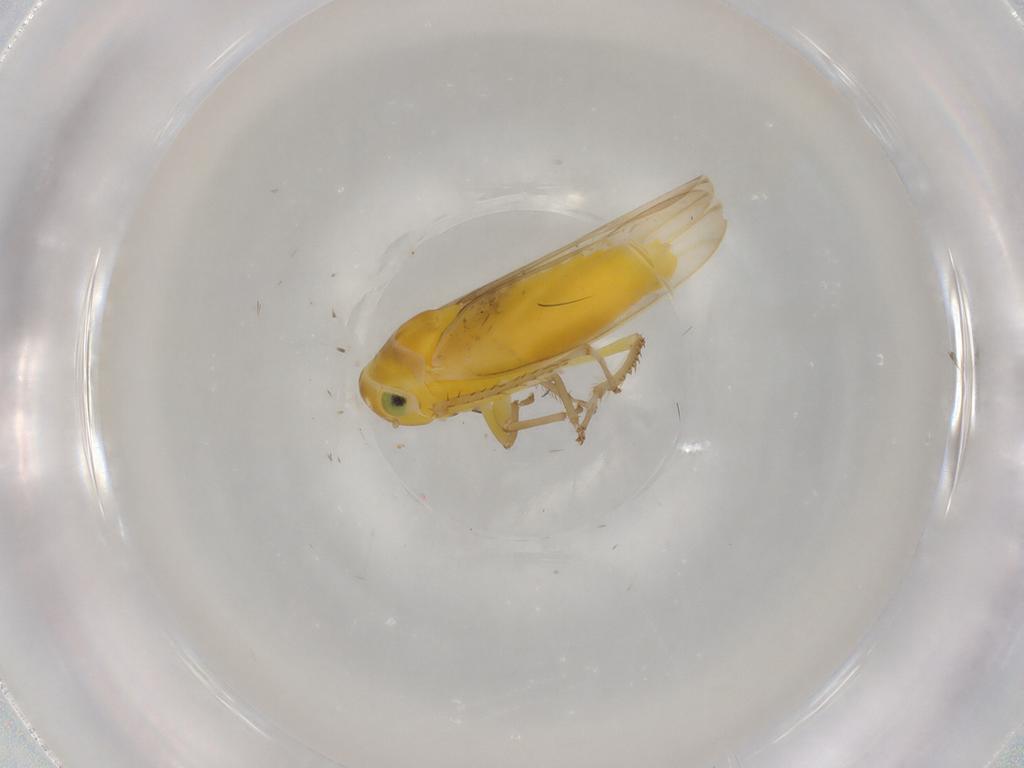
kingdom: Animalia
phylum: Arthropoda
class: Insecta
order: Hemiptera
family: Cicadellidae
